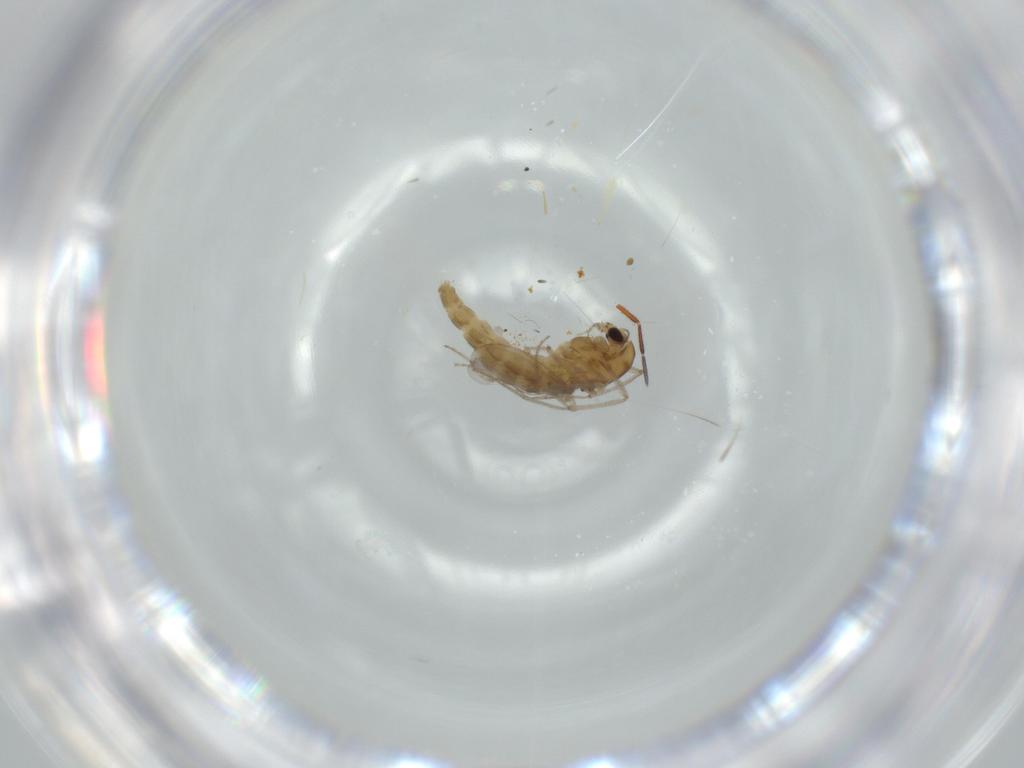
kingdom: Animalia
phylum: Arthropoda
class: Insecta
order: Diptera
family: Chironomidae
